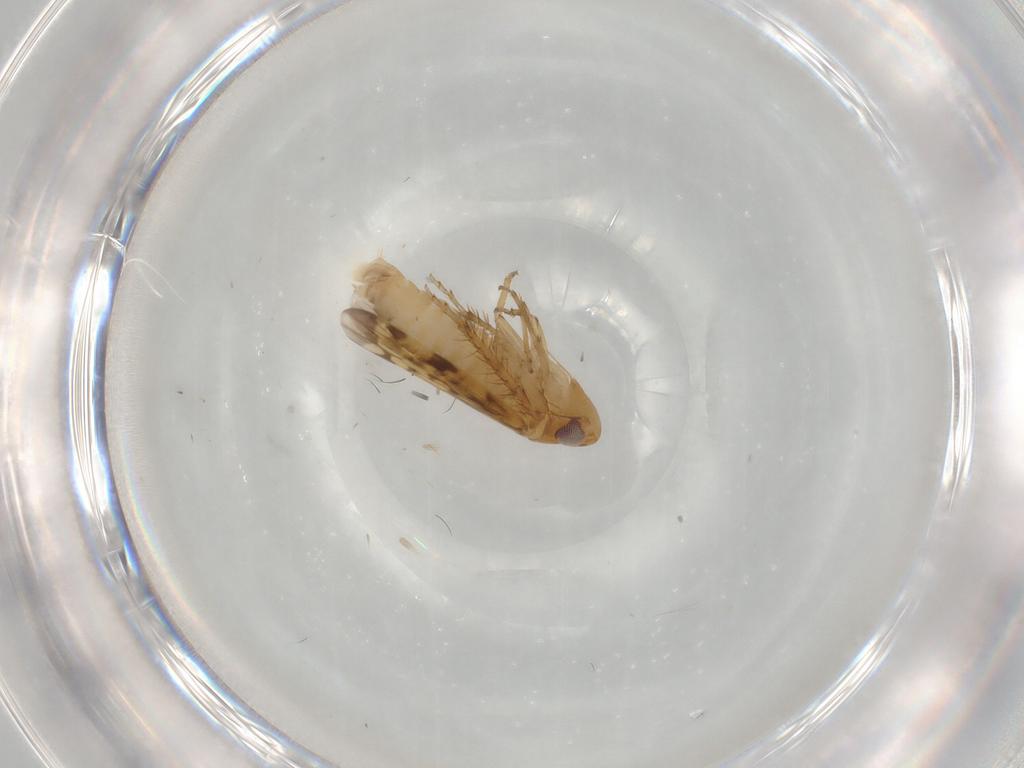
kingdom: Animalia
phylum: Arthropoda
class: Insecta
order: Hemiptera
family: Cicadellidae
